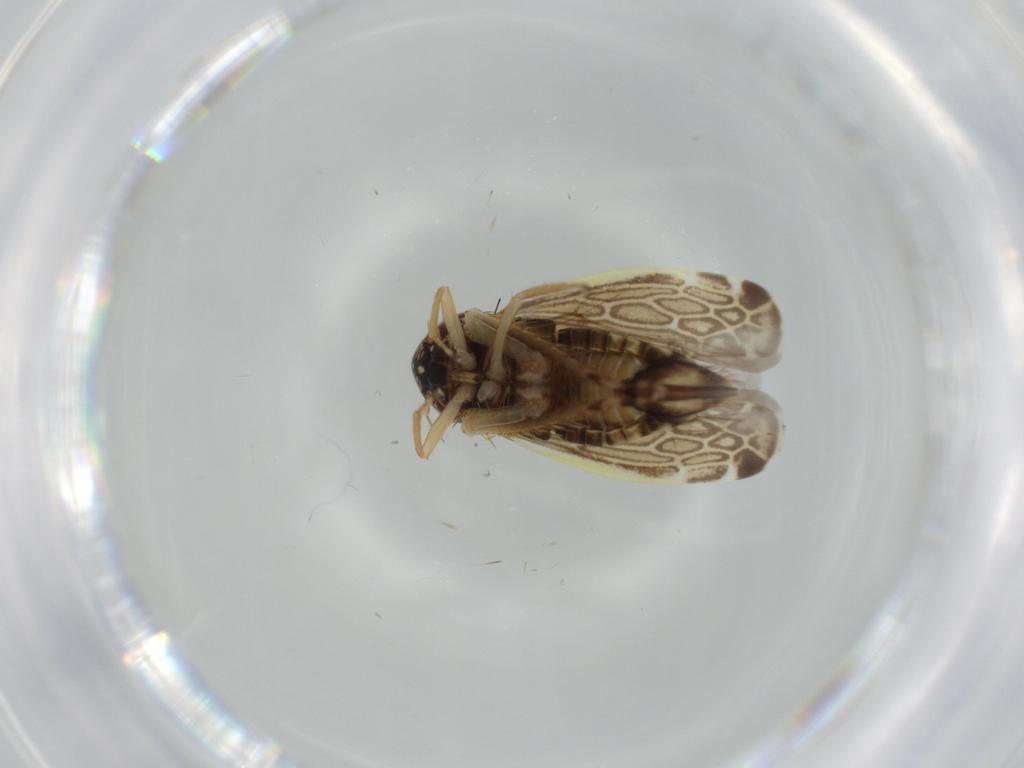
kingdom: Animalia
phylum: Arthropoda
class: Insecta
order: Hemiptera
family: Cicadellidae
